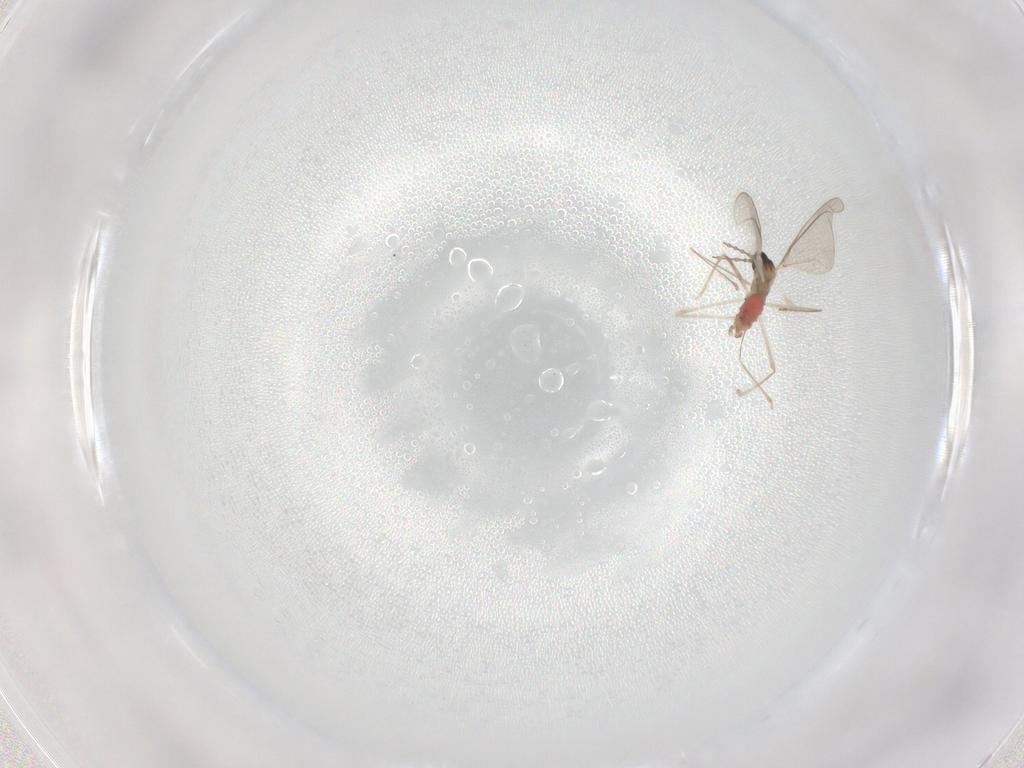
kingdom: Animalia
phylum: Arthropoda
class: Insecta
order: Diptera
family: Cecidomyiidae
